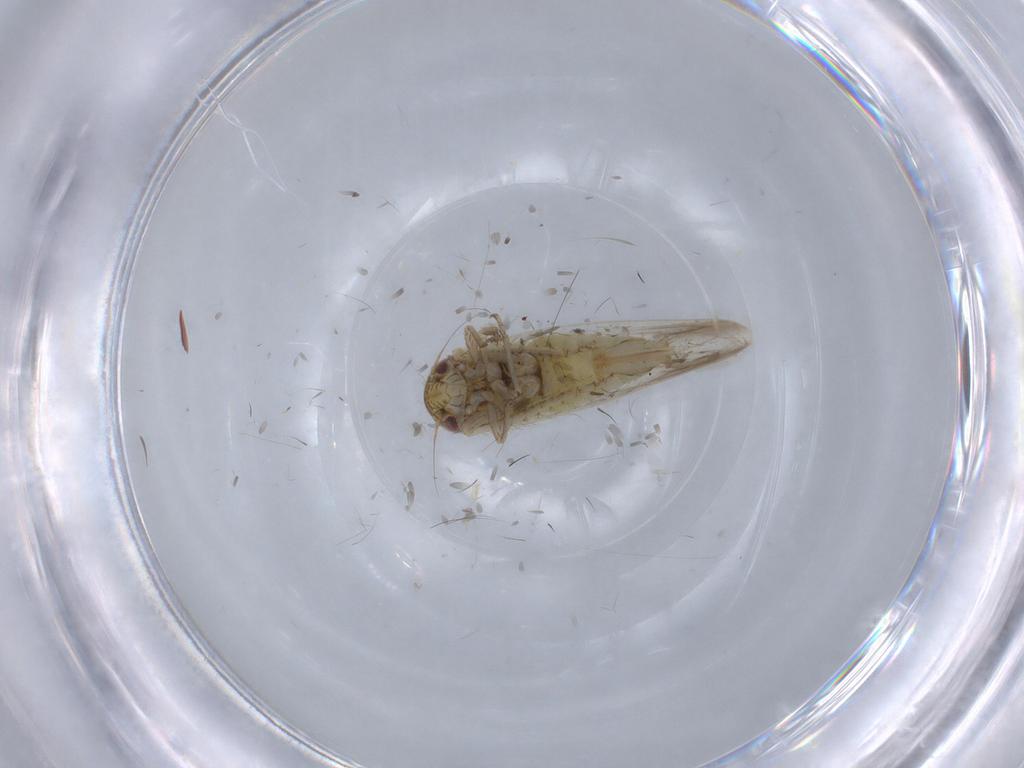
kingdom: Animalia
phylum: Arthropoda
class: Insecta
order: Hemiptera
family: Cicadellidae
